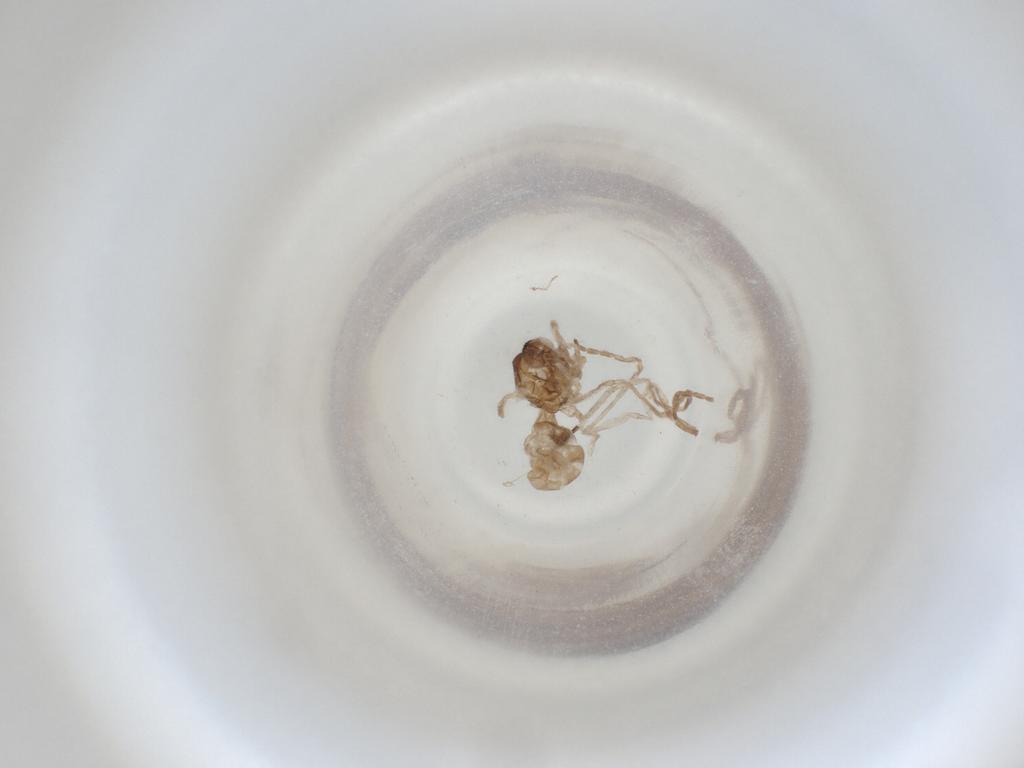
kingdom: Animalia
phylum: Arthropoda
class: Insecta
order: Diptera
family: Cecidomyiidae
